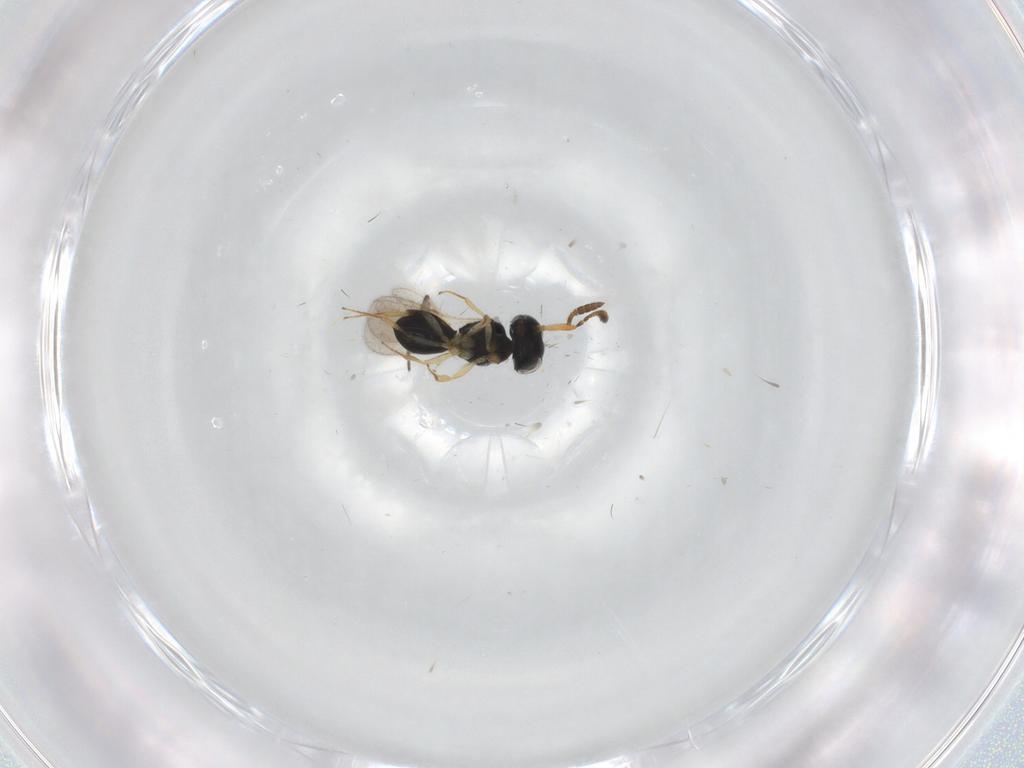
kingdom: Animalia
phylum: Arthropoda
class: Insecta
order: Hymenoptera
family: Scelionidae
